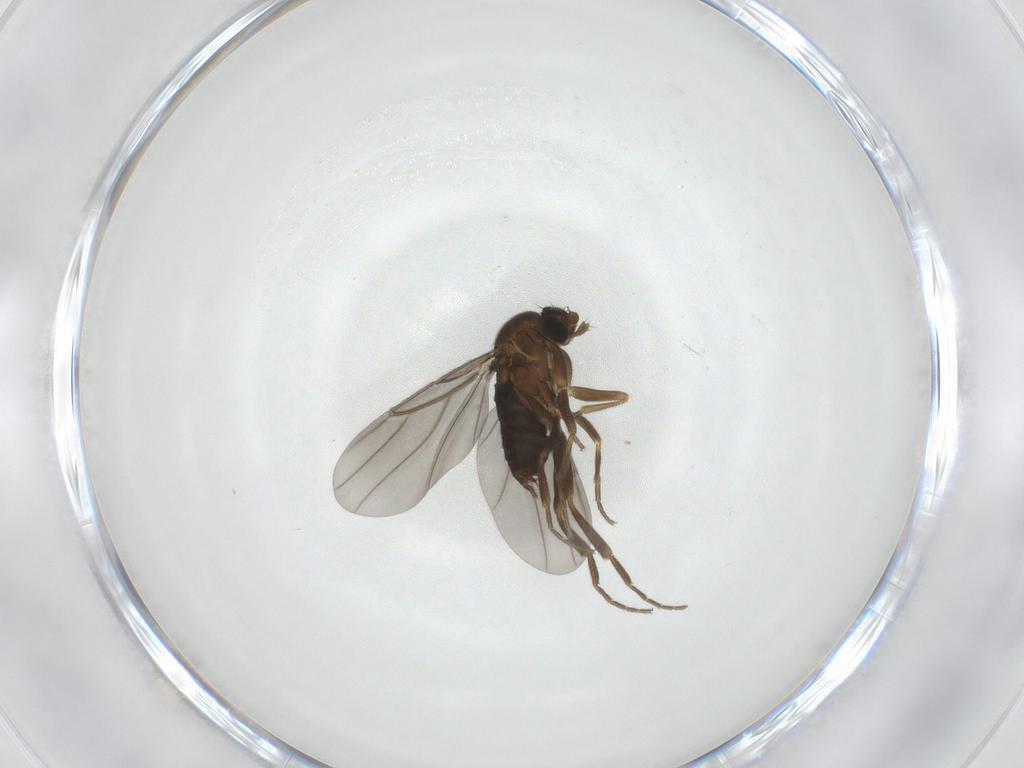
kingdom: Animalia
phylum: Arthropoda
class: Insecta
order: Diptera
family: Phoridae
